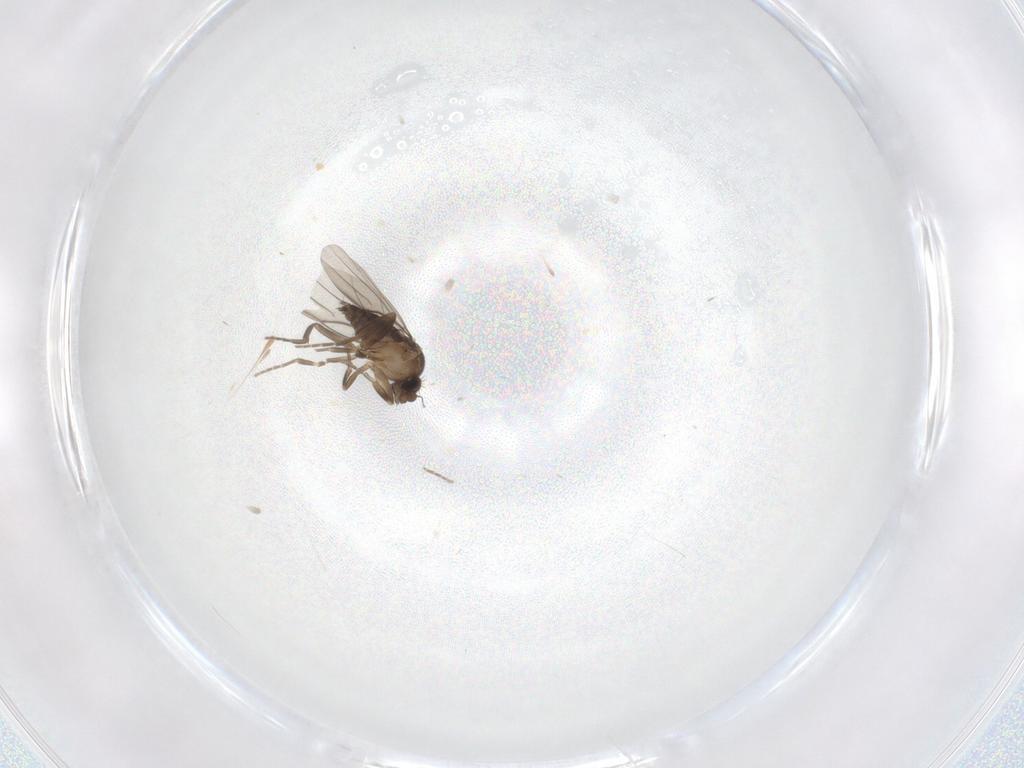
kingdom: Animalia
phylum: Arthropoda
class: Insecta
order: Diptera
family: Phoridae
